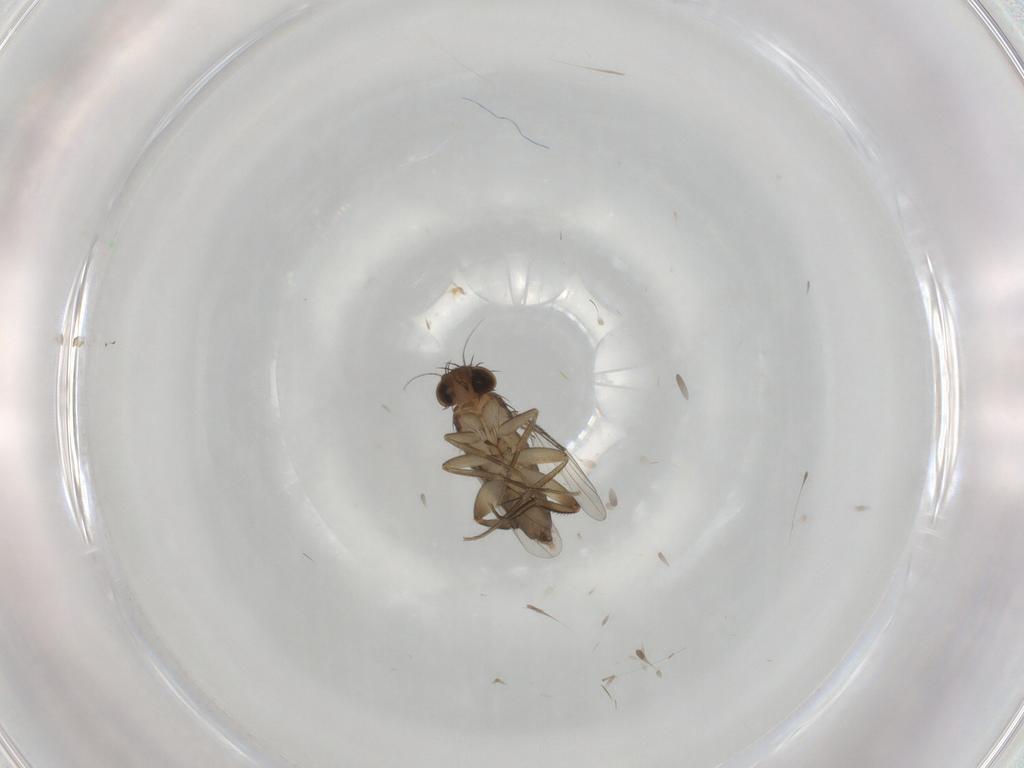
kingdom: Animalia
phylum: Arthropoda
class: Insecta
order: Diptera
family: Phoridae
